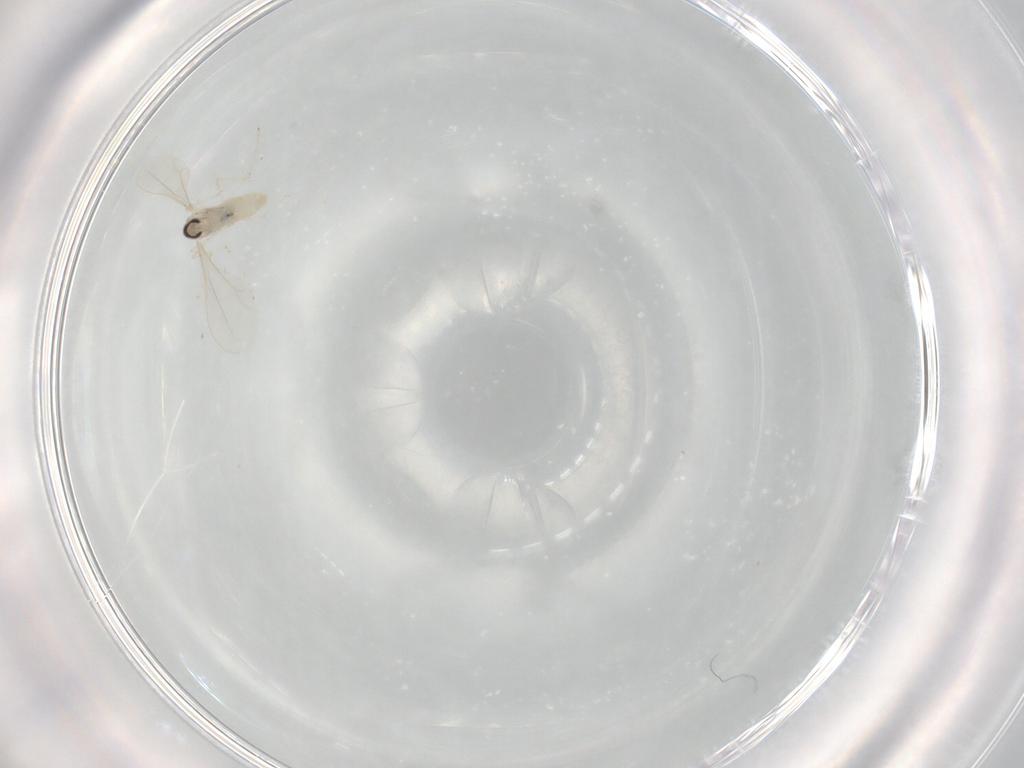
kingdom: Animalia
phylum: Arthropoda
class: Insecta
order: Diptera
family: Cecidomyiidae
